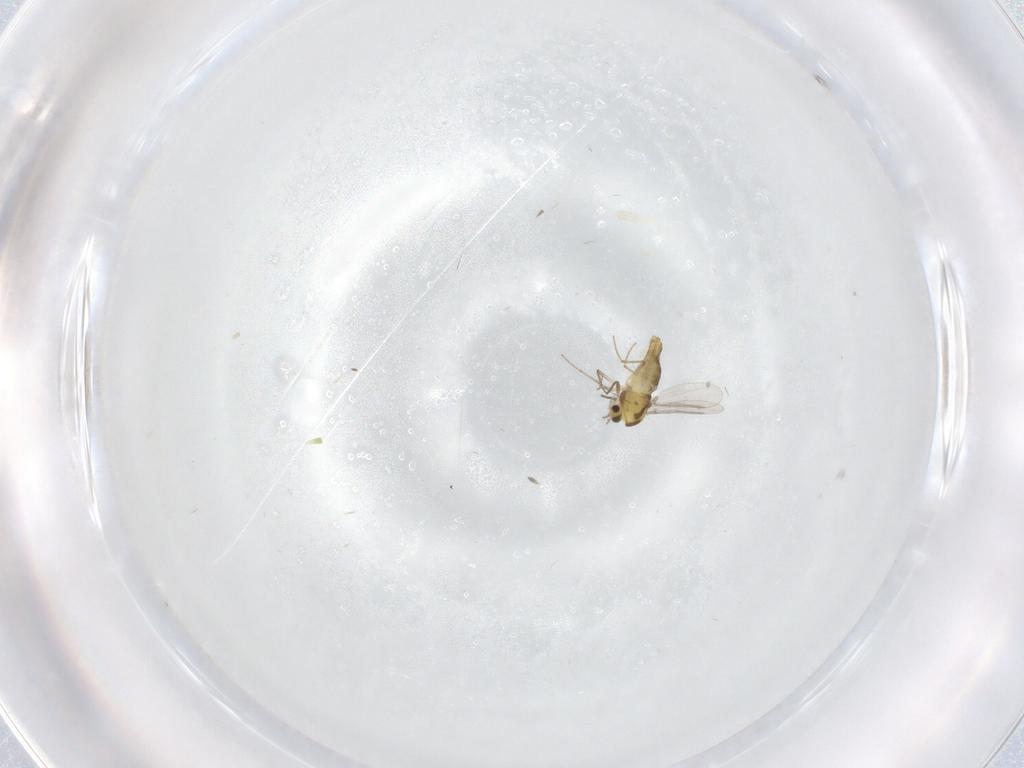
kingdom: Animalia
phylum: Arthropoda
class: Insecta
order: Diptera
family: Chironomidae
